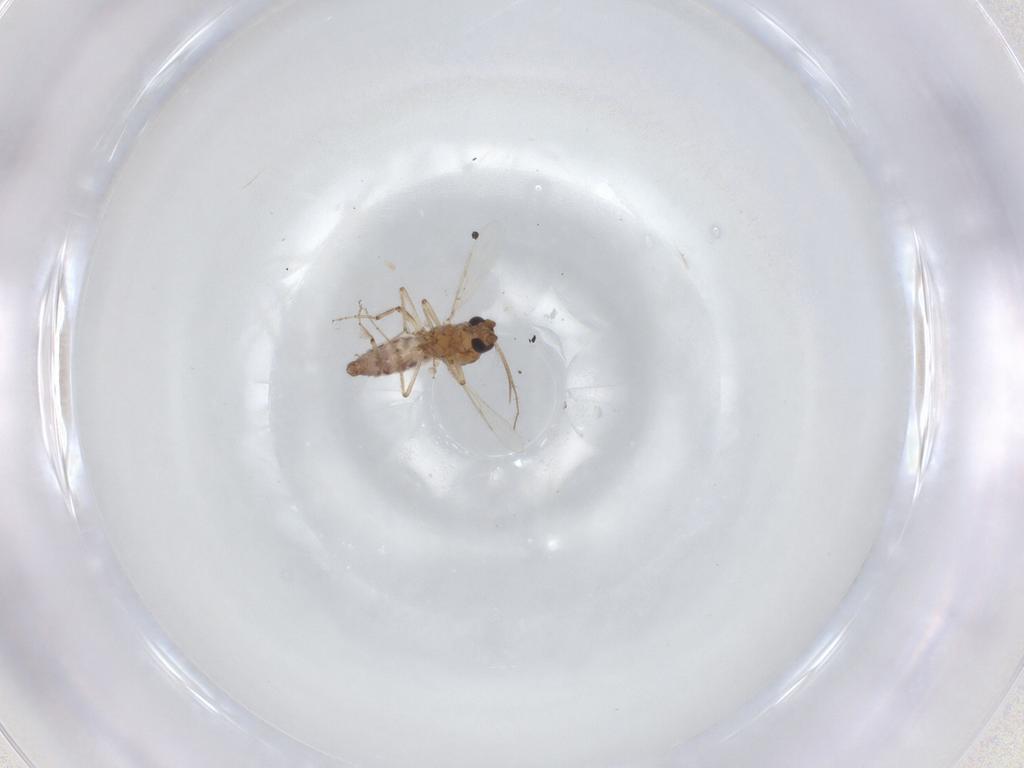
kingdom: Animalia
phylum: Arthropoda
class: Insecta
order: Diptera
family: Ceratopogonidae
